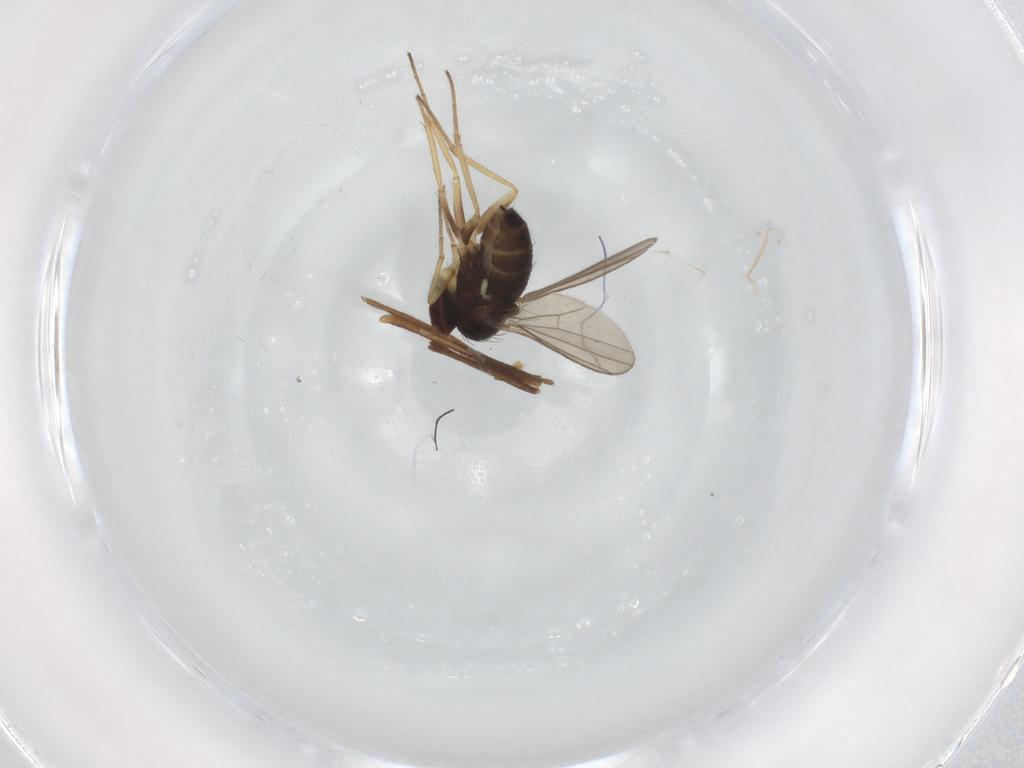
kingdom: Animalia
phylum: Arthropoda
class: Insecta
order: Diptera
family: Dolichopodidae
